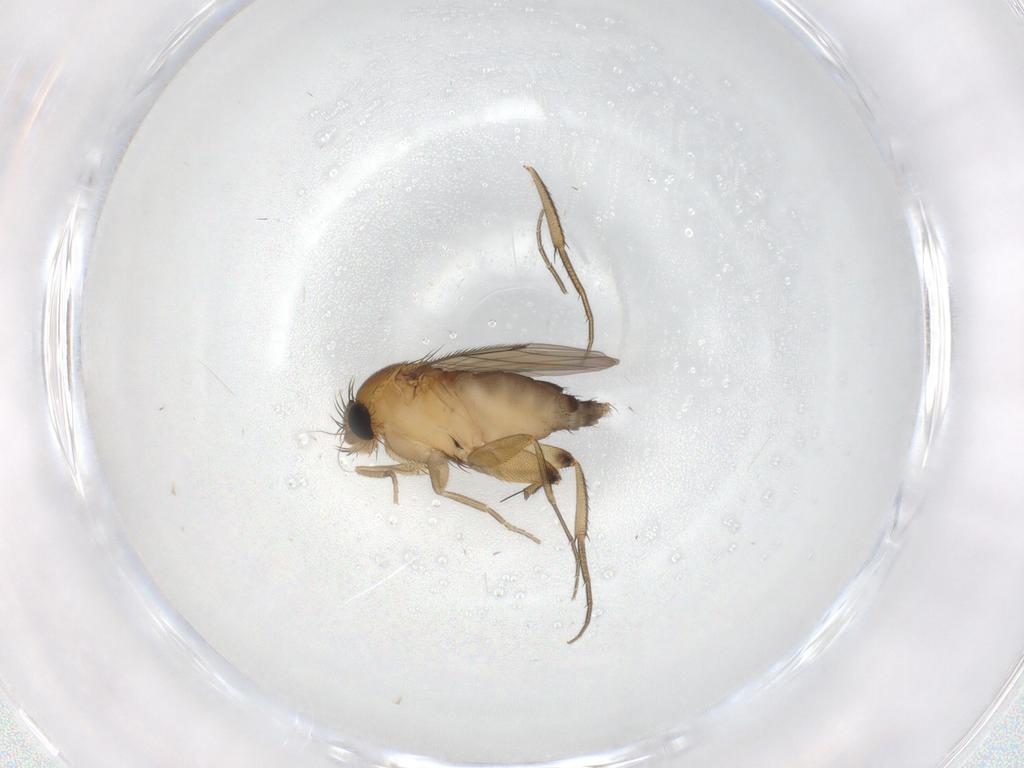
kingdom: Animalia
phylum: Arthropoda
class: Insecta
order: Diptera
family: Phoridae
